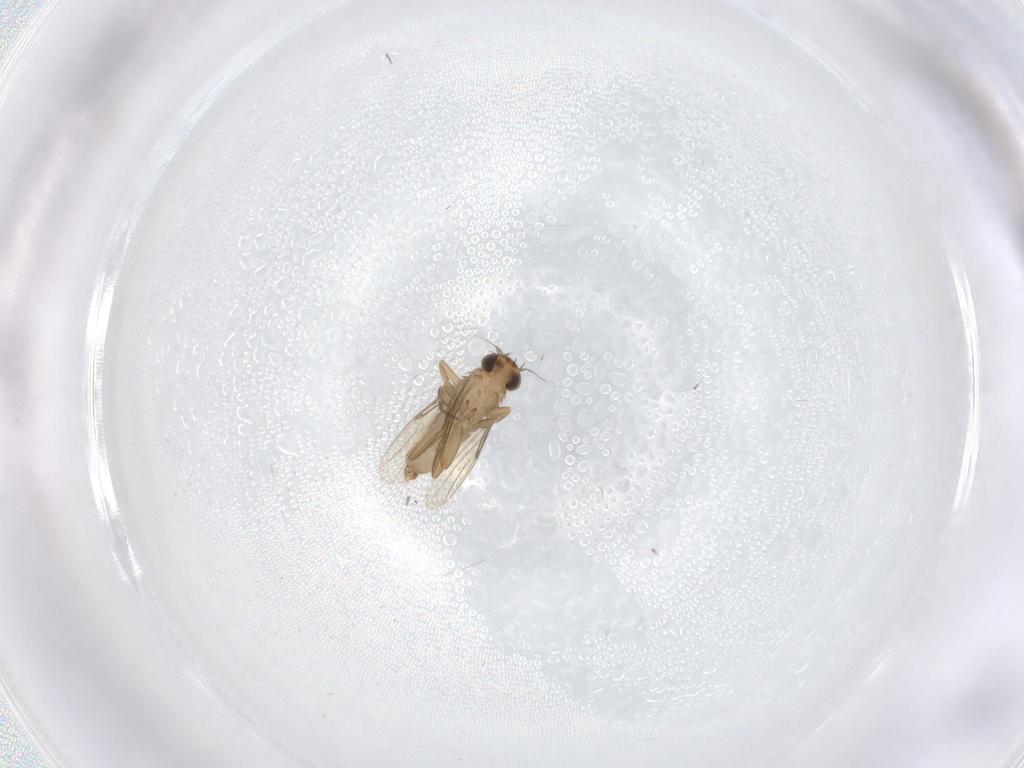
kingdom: Animalia
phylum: Arthropoda
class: Insecta
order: Diptera
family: Phoridae
